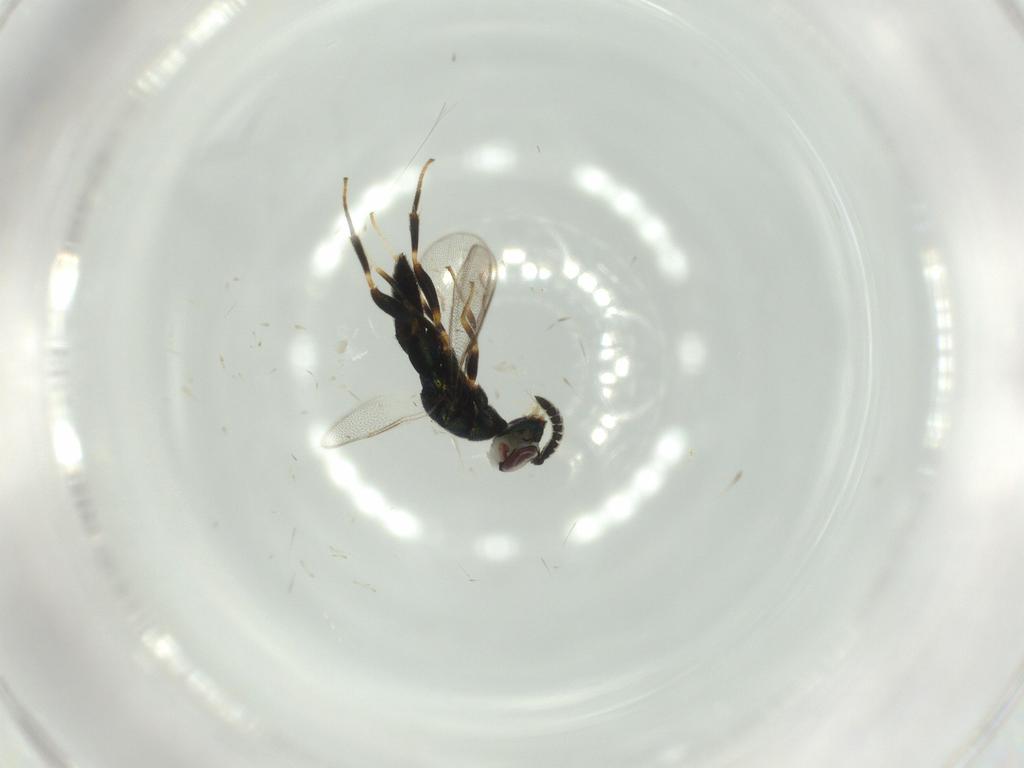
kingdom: Animalia
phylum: Arthropoda
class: Insecta
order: Hymenoptera
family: Cleonyminae
